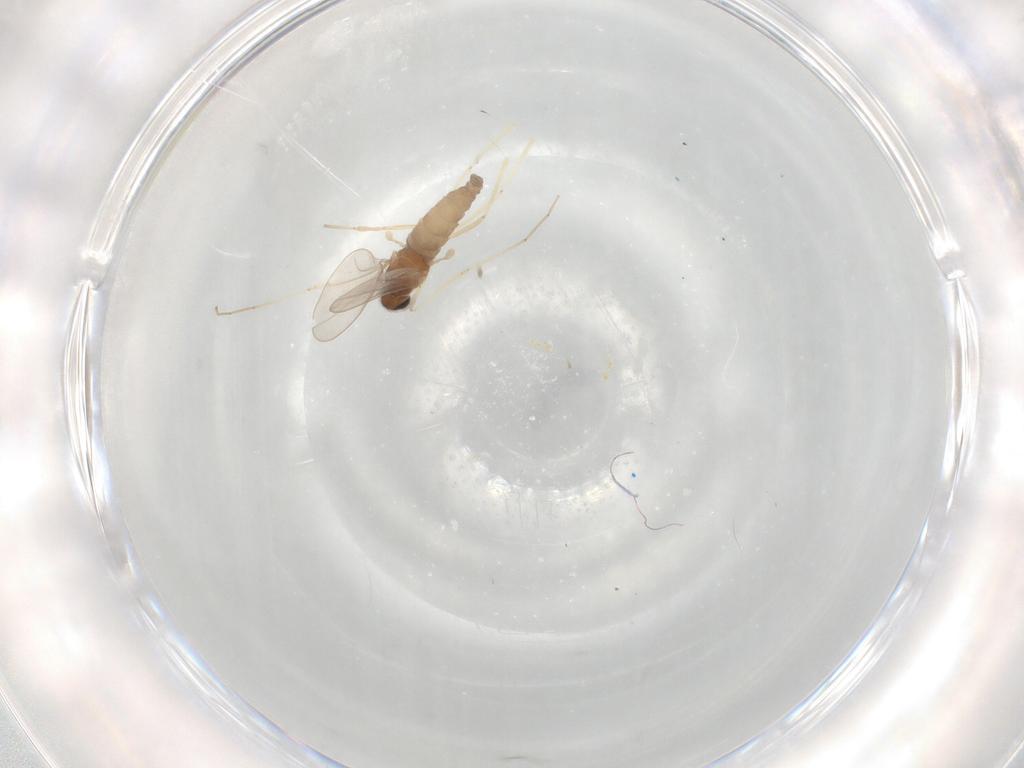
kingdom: Animalia
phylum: Arthropoda
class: Insecta
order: Diptera
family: Cecidomyiidae
